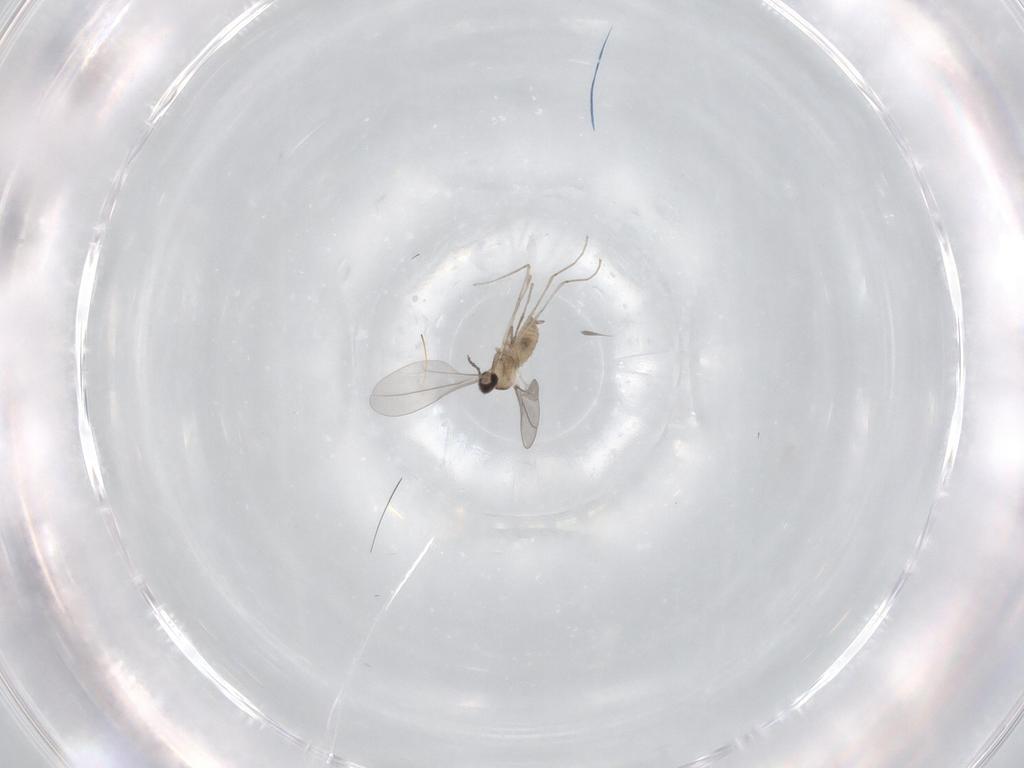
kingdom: Animalia
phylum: Arthropoda
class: Insecta
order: Diptera
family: Cecidomyiidae
